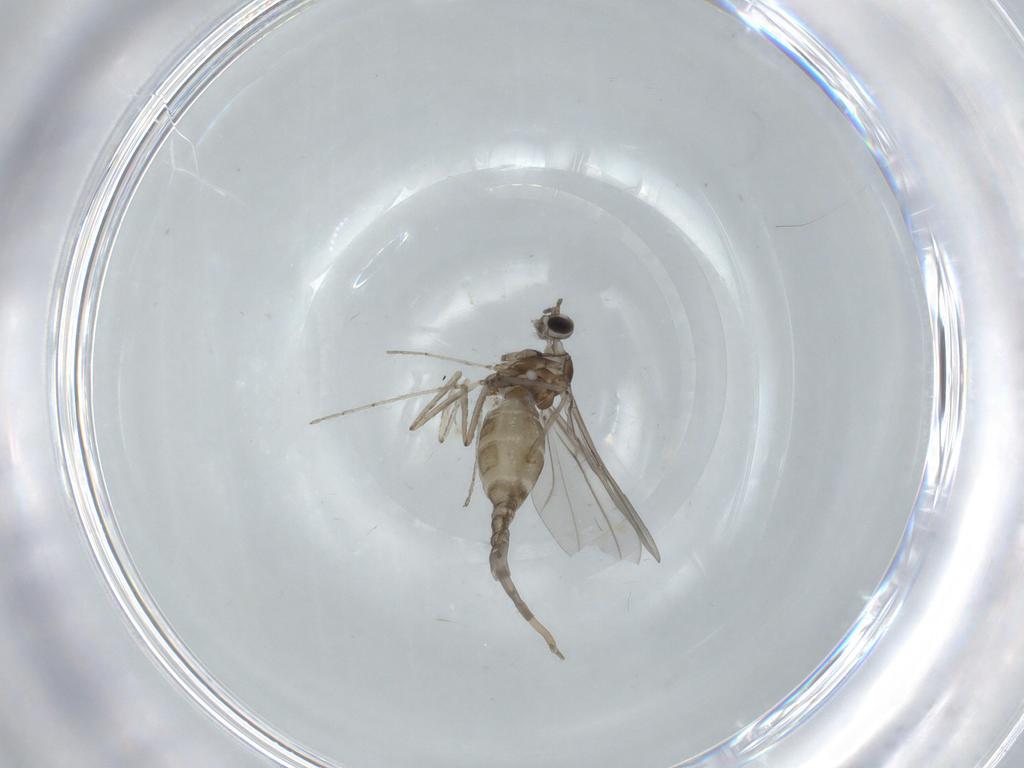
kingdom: Animalia
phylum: Arthropoda
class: Insecta
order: Diptera
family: Cecidomyiidae
